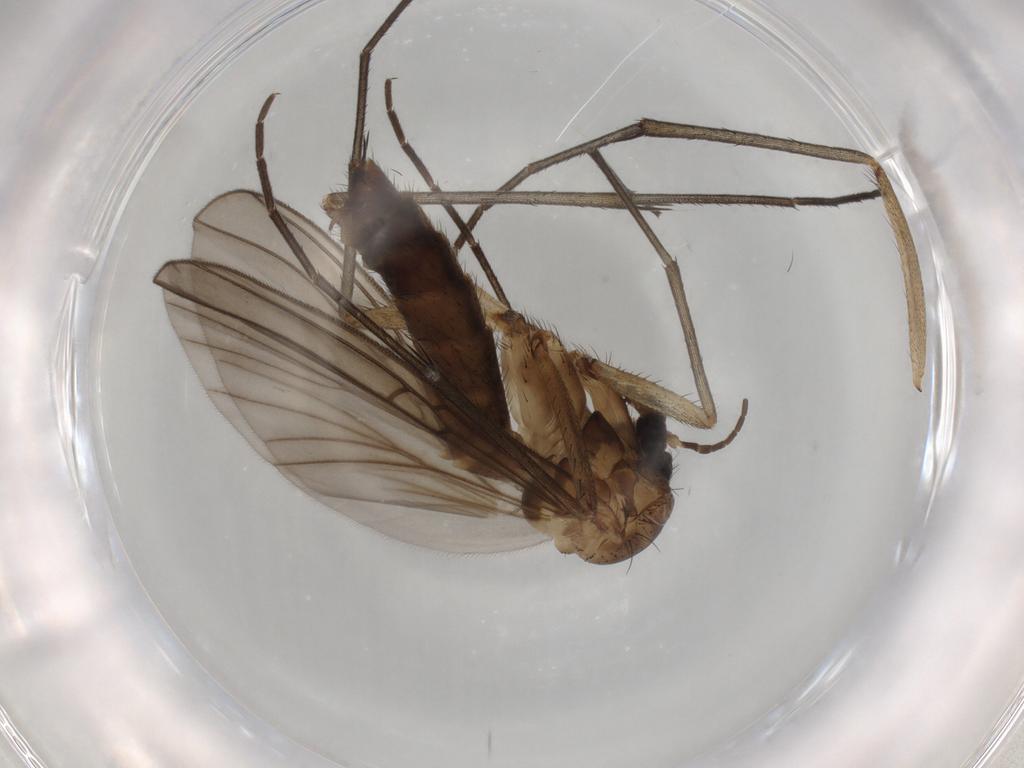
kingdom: Animalia
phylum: Arthropoda
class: Insecta
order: Diptera
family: Mycetophilidae
